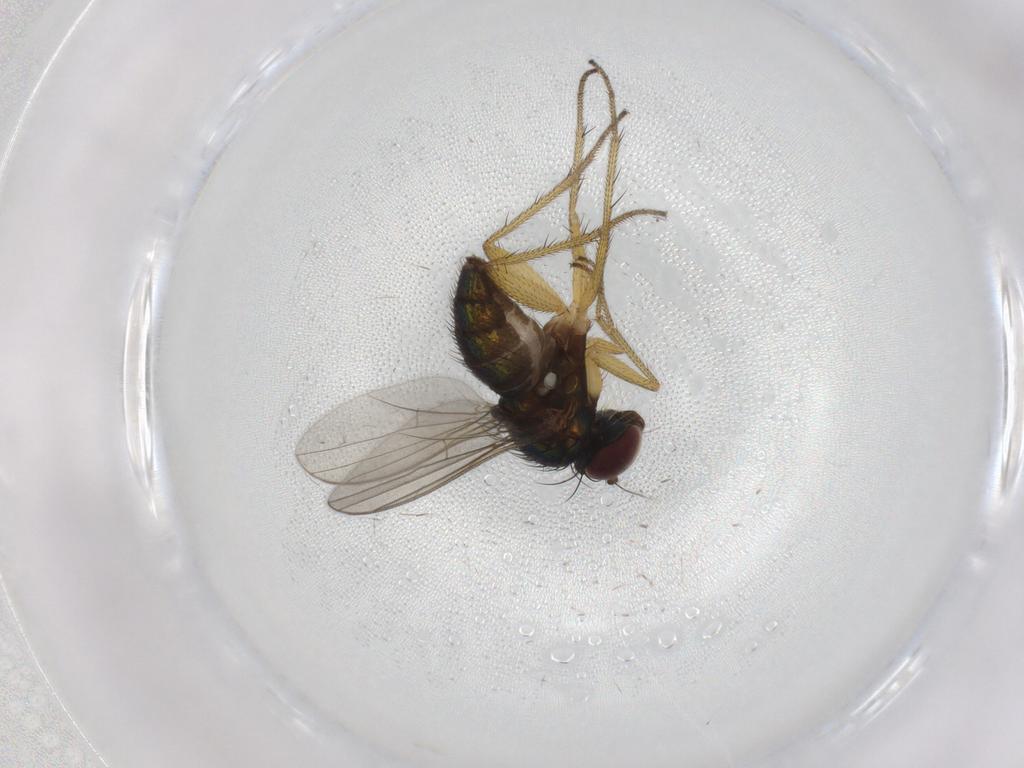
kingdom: Animalia
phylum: Arthropoda
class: Insecta
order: Diptera
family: Dolichopodidae
